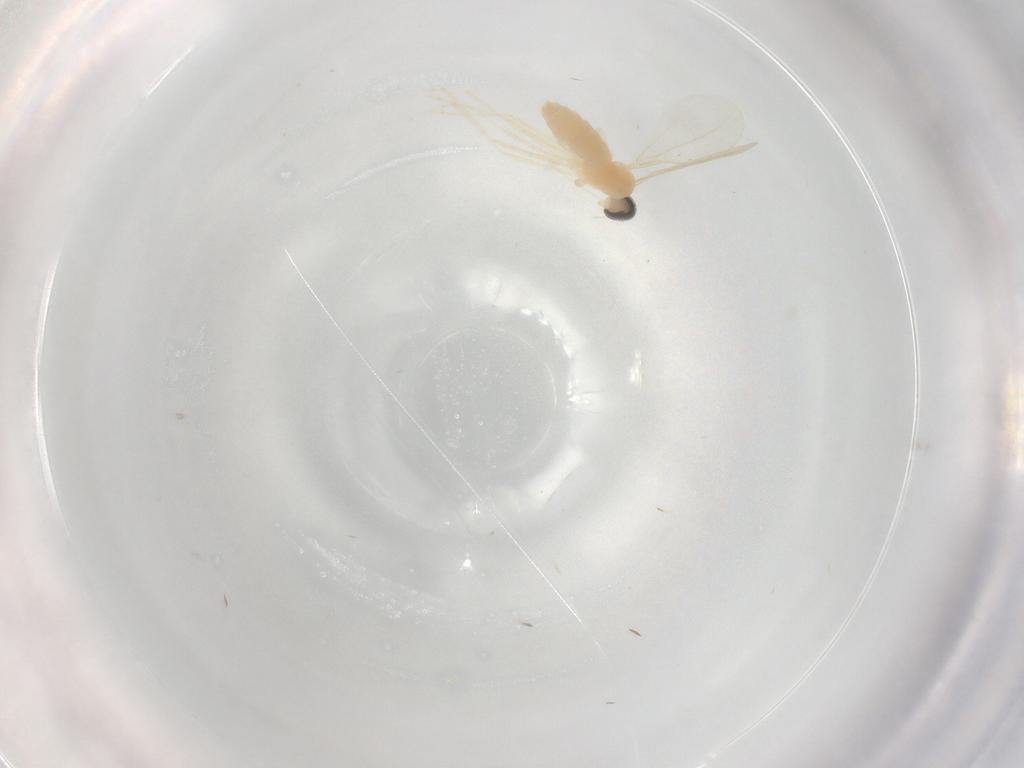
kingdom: Animalia
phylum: Arthropoda
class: Insecta
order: Diptera
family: Cecidomyiidae
